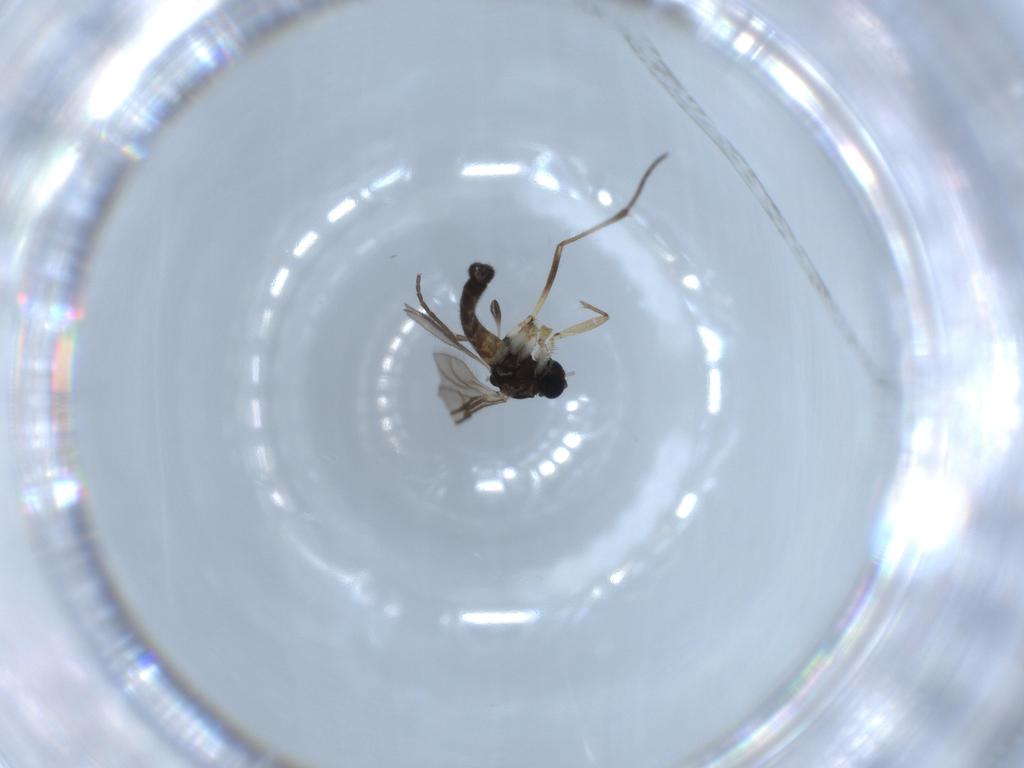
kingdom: Animalia
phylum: Arthropoda
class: Insecta
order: Diptera
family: Sciaridae
